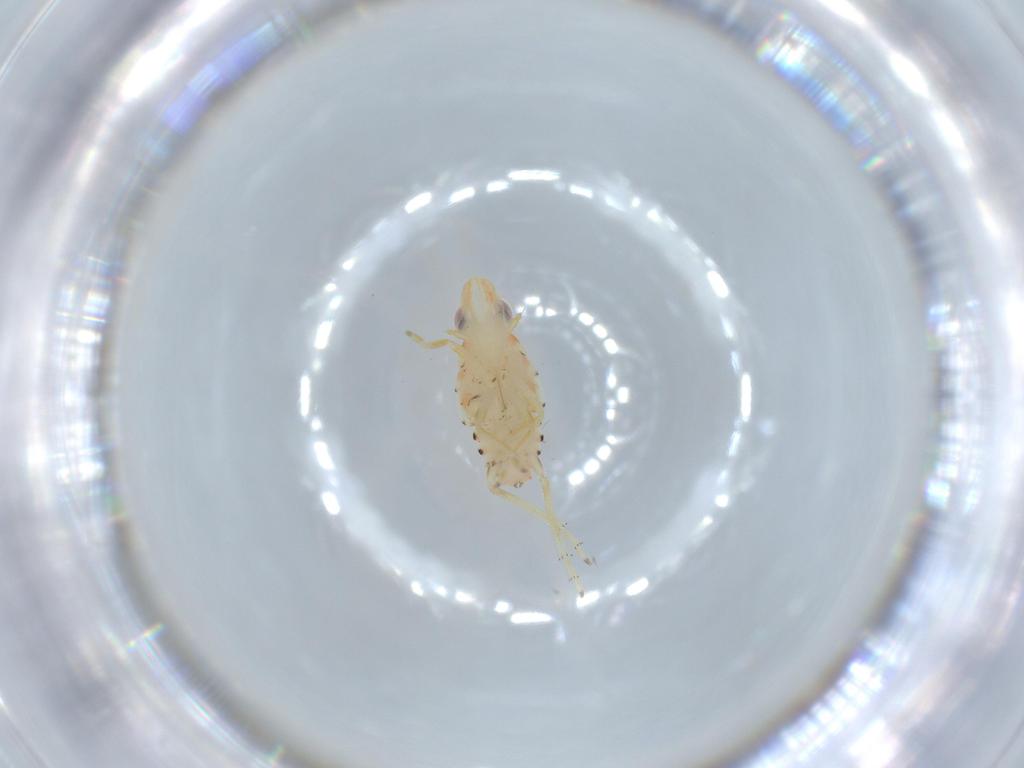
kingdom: Animalia
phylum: Arthropoda
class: Insecta
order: Hemiptera
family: Tropiduchidae
